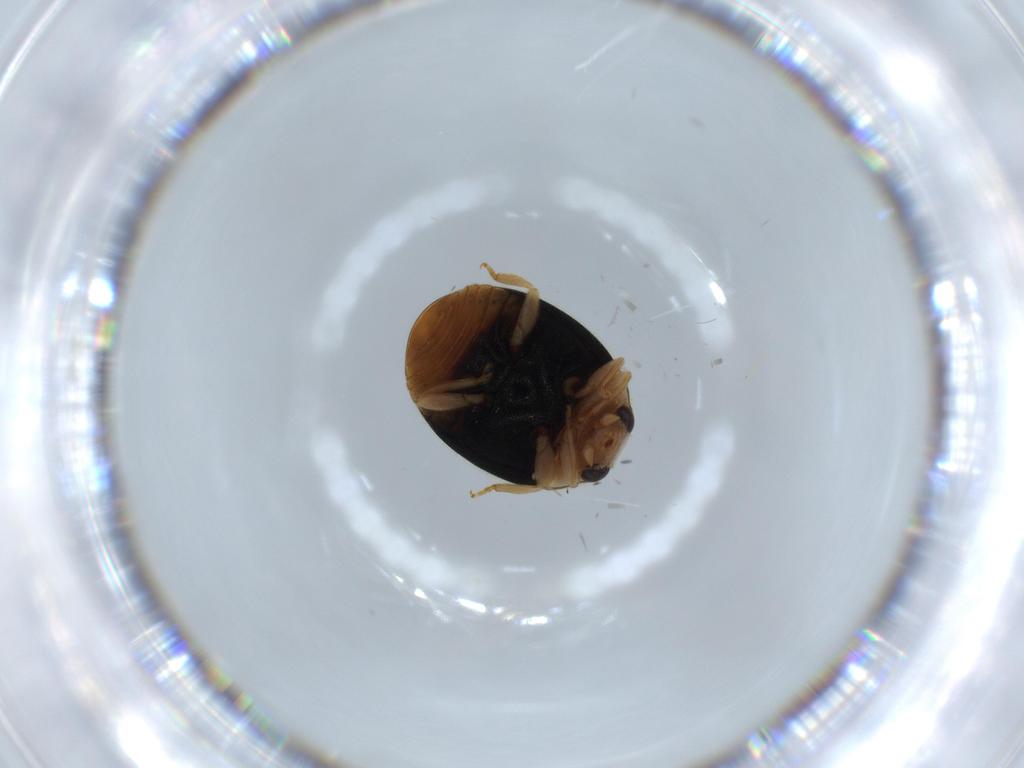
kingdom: Animalia
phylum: Arthropoda
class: Insecta
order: Coleoptera
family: Coccinellidae
